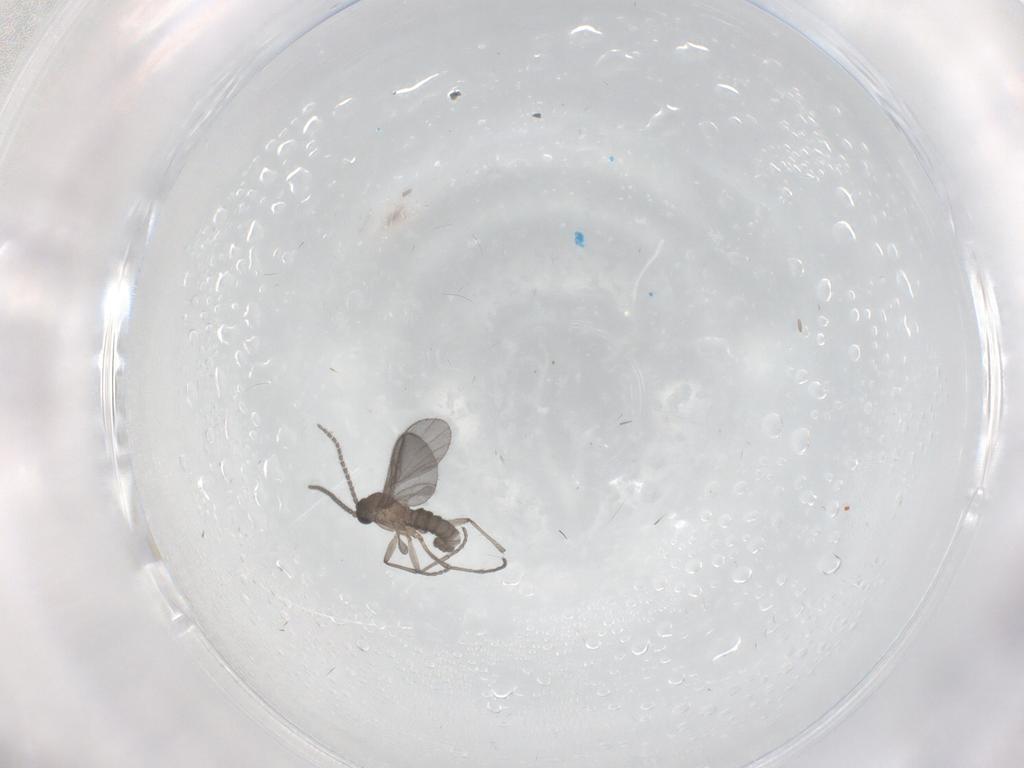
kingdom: Animalia
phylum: Arthropoda
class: Insecta
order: Diptera
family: Sciaridae
